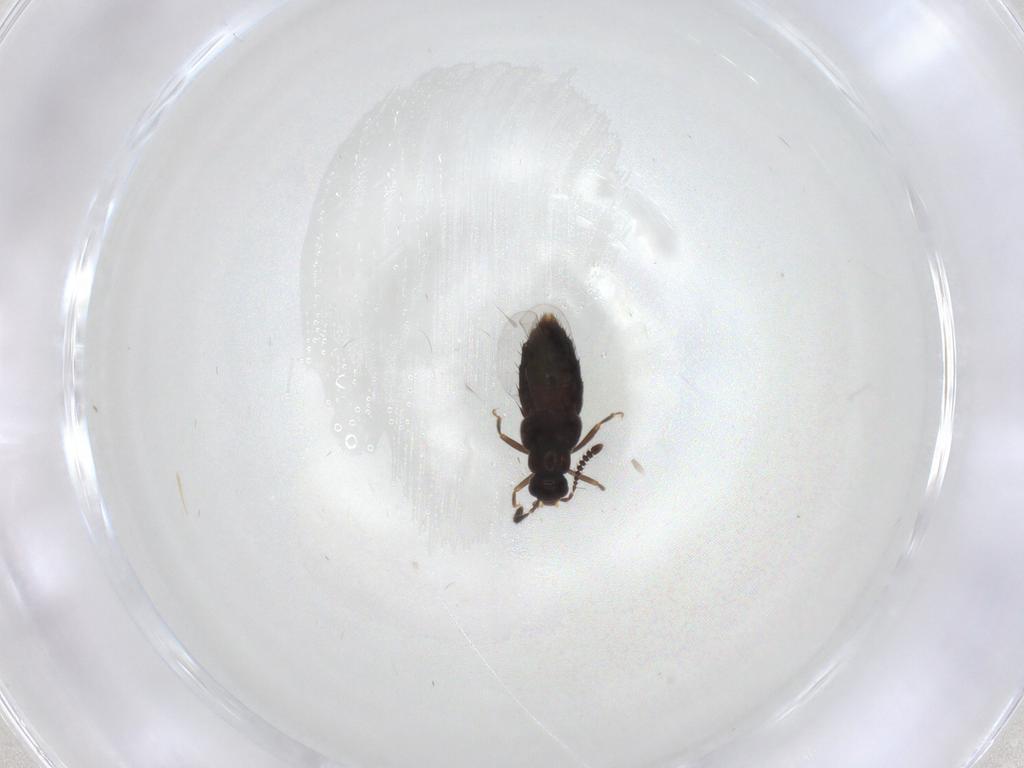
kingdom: Animalia
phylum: Arthropoda
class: Insecta
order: Coleoptera
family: Staphylinidae
